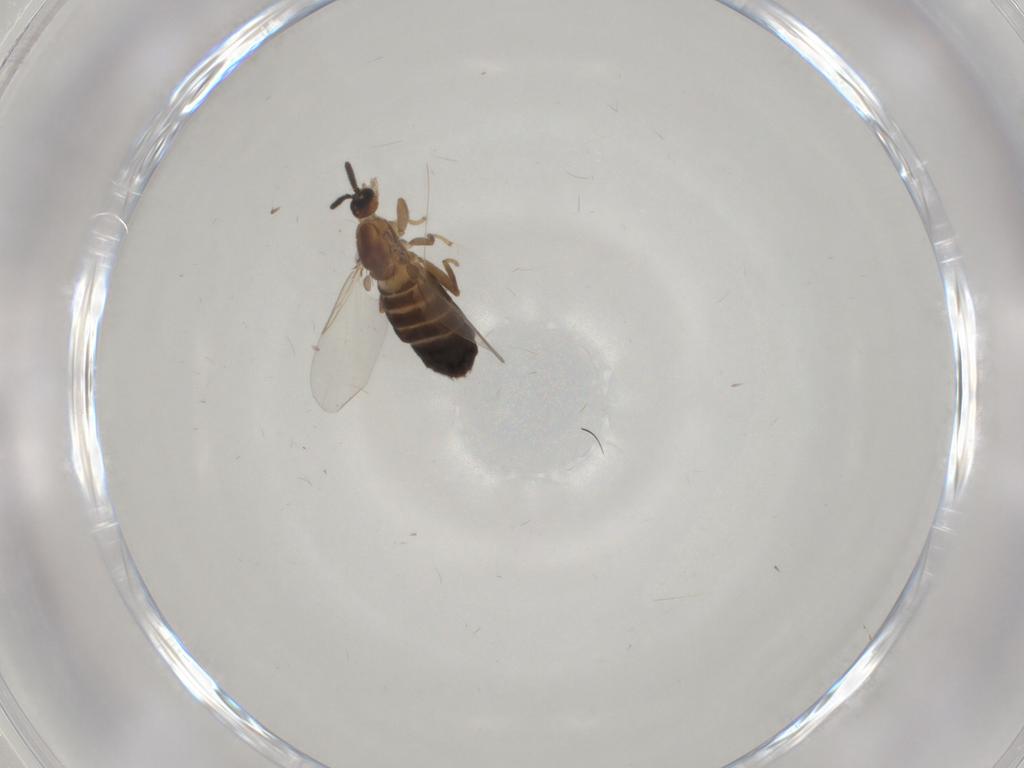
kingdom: Animalia
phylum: Arthropoda
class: Insecta
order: Diptera
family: Scatopsidae
